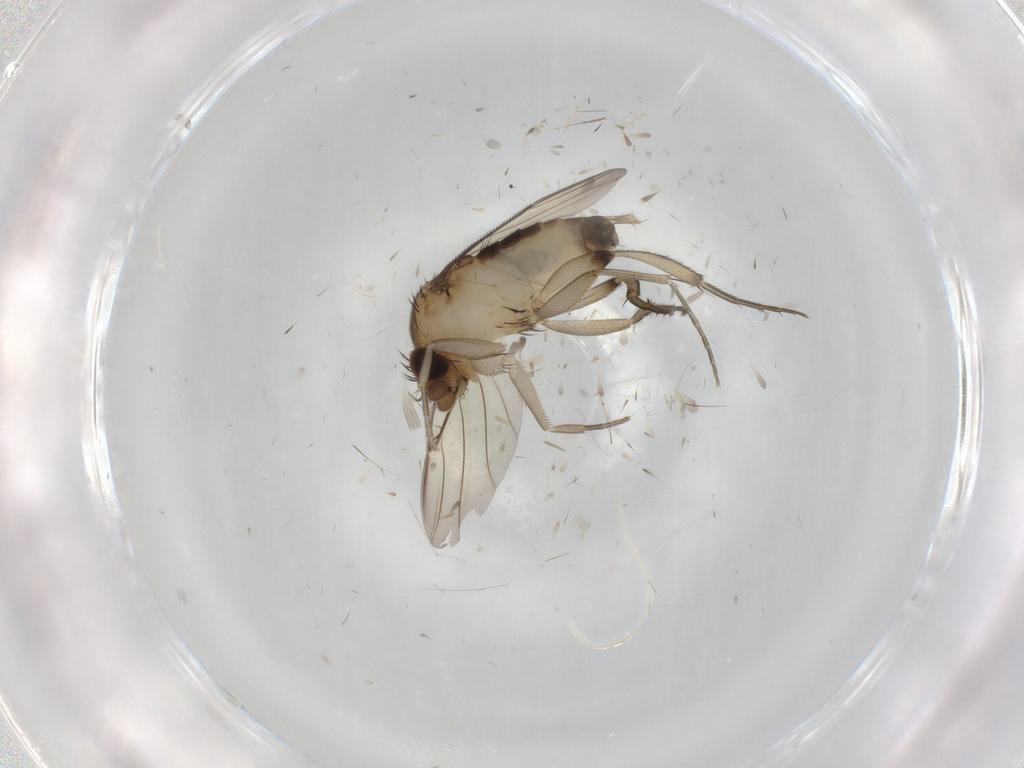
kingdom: Animalia
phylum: Arthropoda
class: Insecta
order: Diptera
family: Phoridae
